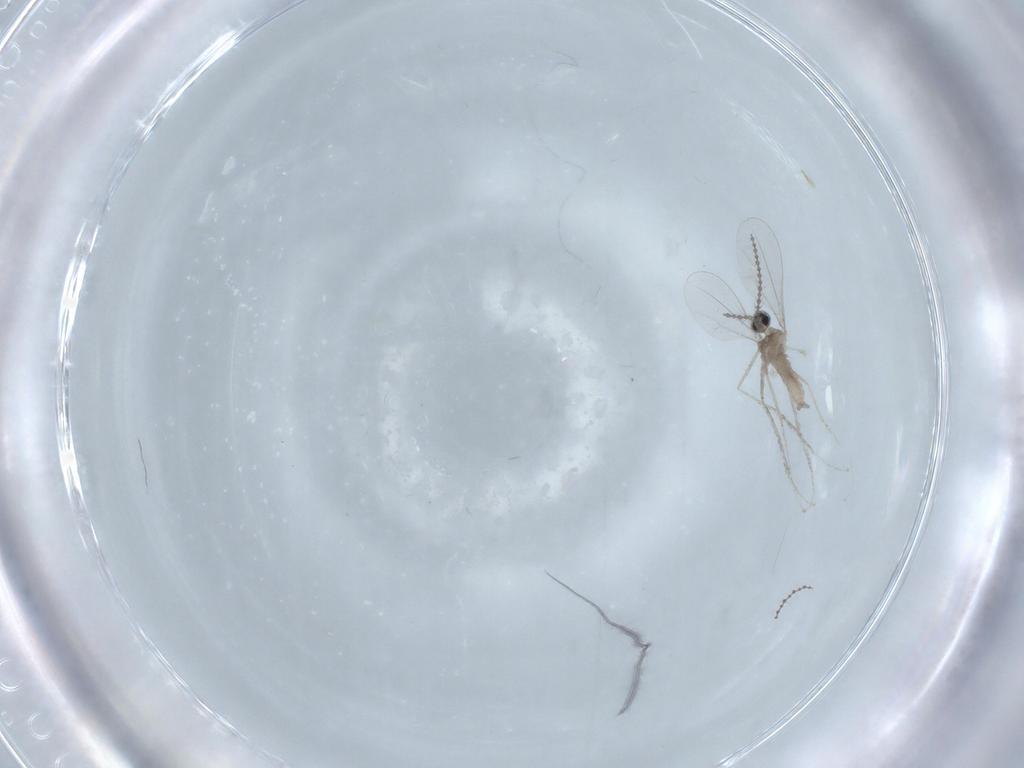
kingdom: Animalia
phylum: Arthropoda
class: Insecta
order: Diptera
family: Cecidomyiidae
